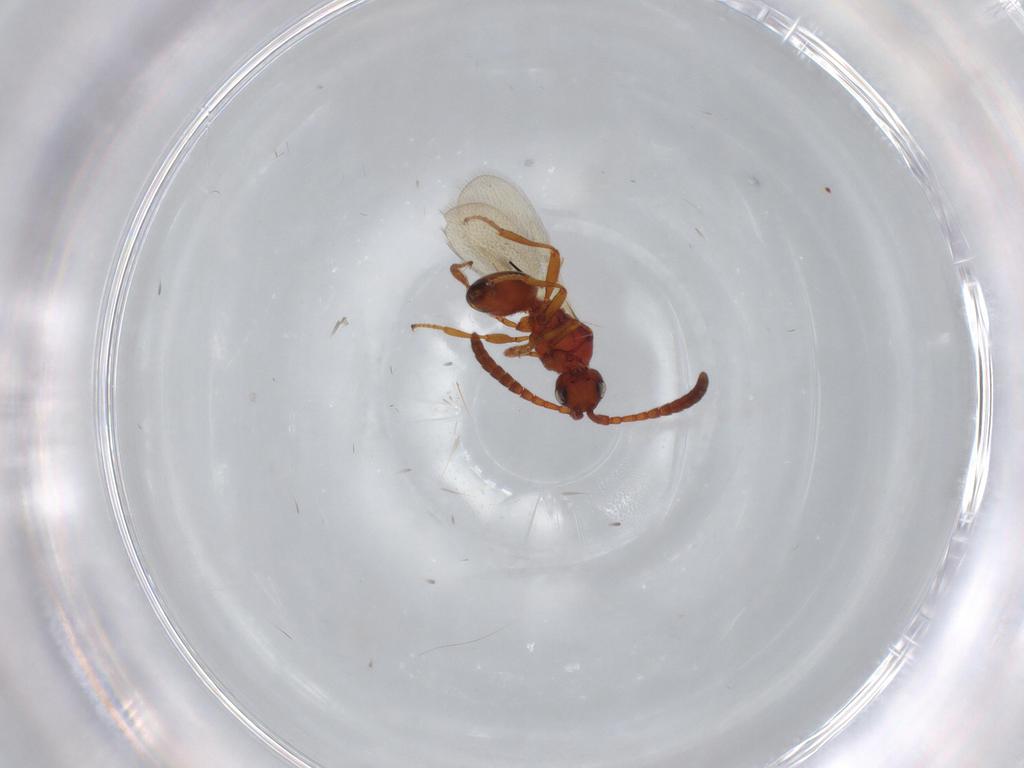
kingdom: Animalia
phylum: Arthropoda
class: Insecta
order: Hymenoptera
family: Diapriidae
